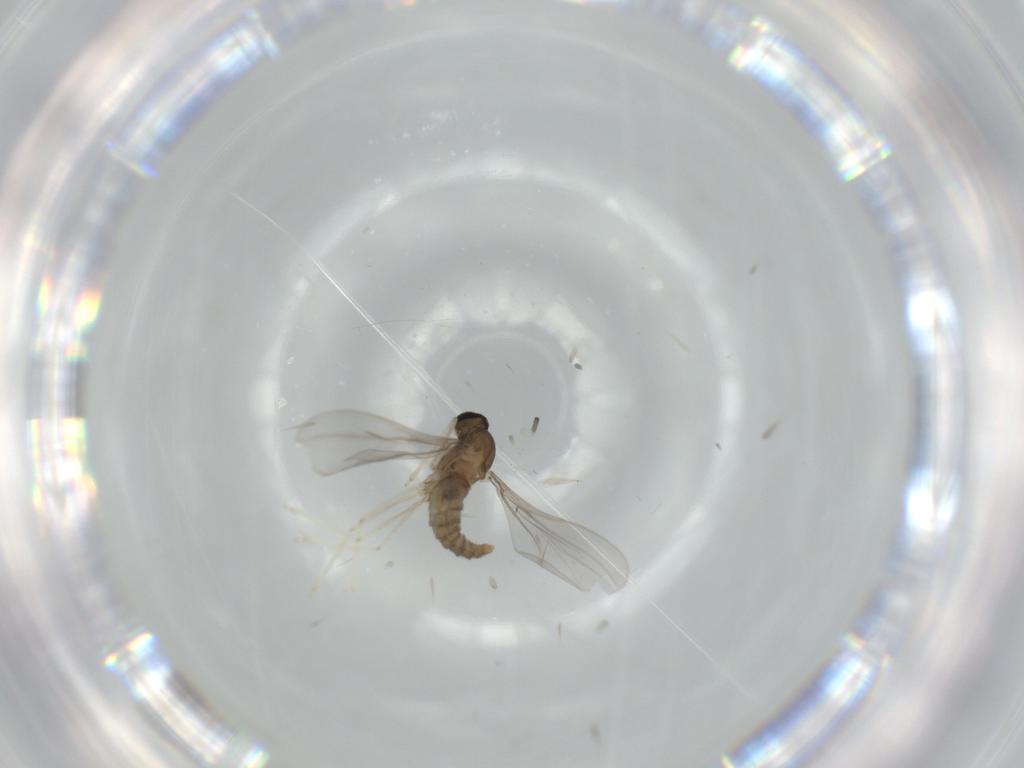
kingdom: Animalia
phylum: Arthropoda
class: Insecta
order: Diptera
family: Cecidomyiidae
